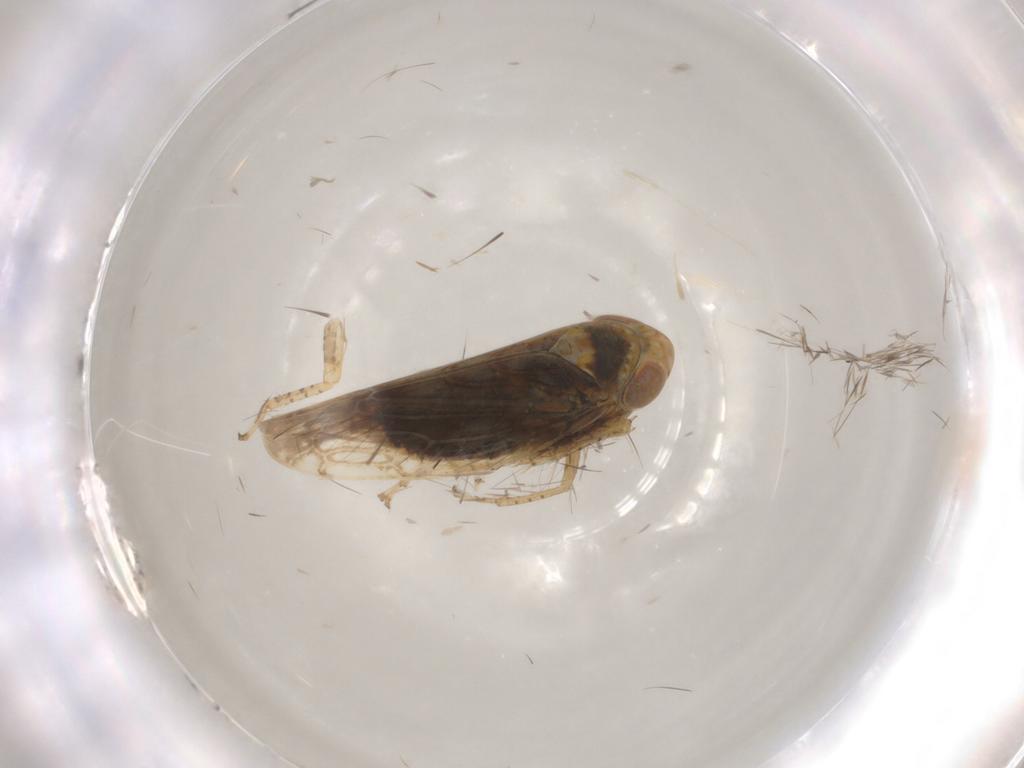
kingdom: Animalia
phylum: Arthropoda
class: Insecta
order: Hemiptera
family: Cicadellidae
